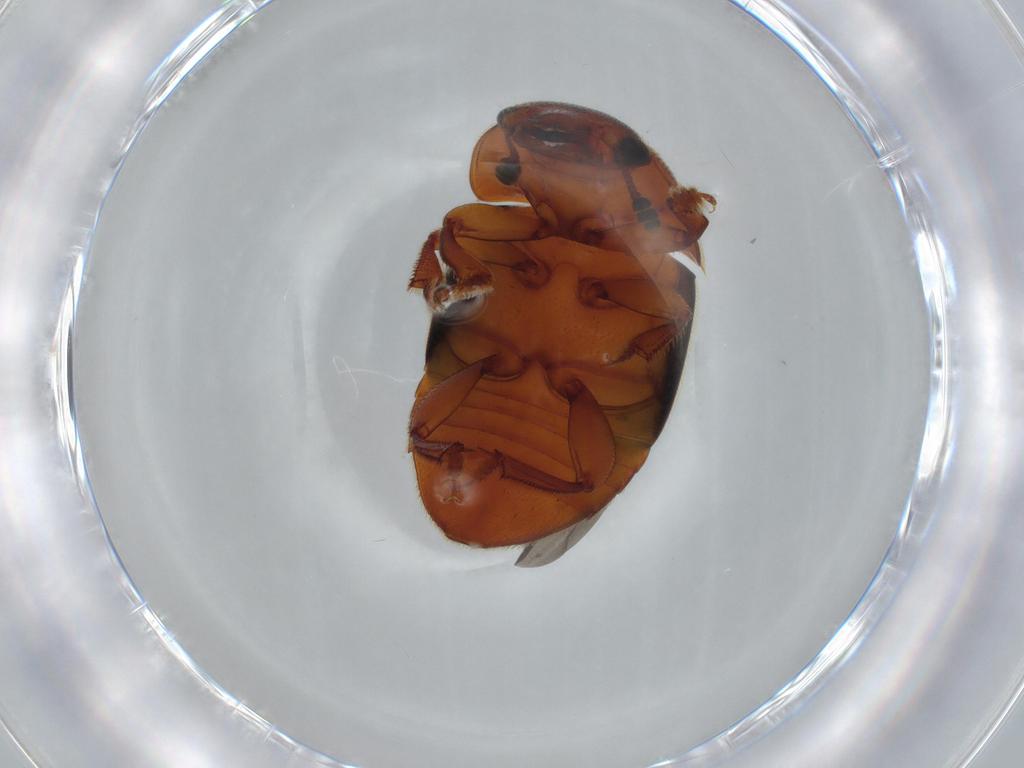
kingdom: Animalia
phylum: Arthropoda
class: Insecta
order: Coleoptera
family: Nitidulidae
